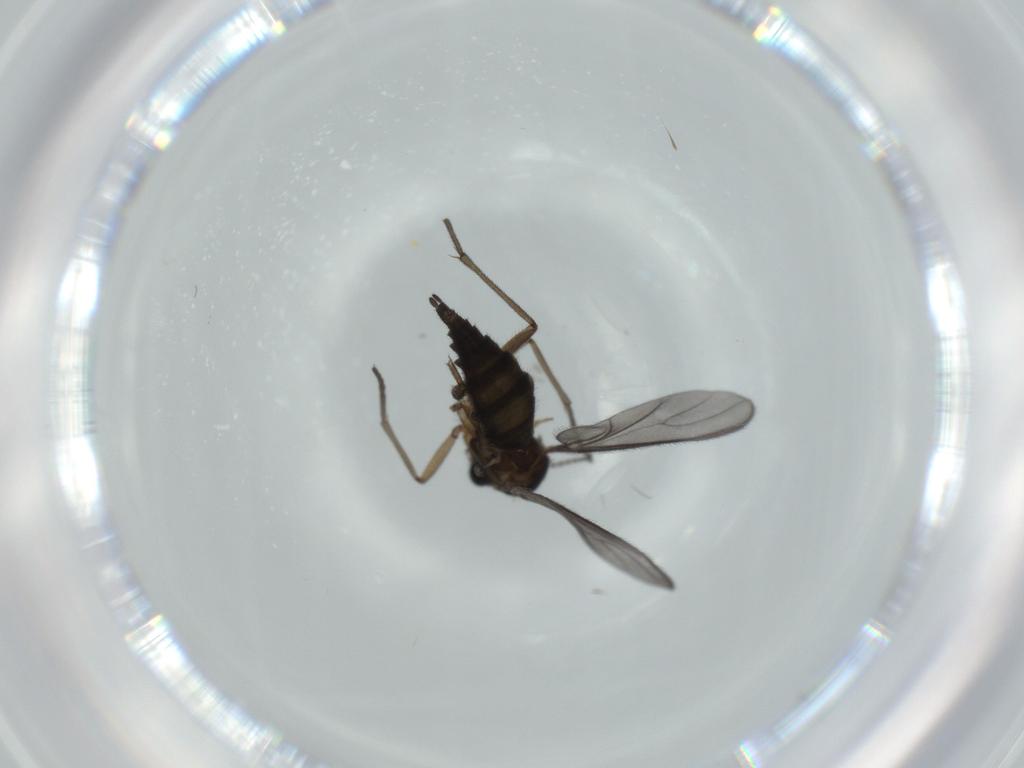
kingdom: Animalia
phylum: Arthropoda
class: Insecta
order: Diptera
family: Sciaridae
